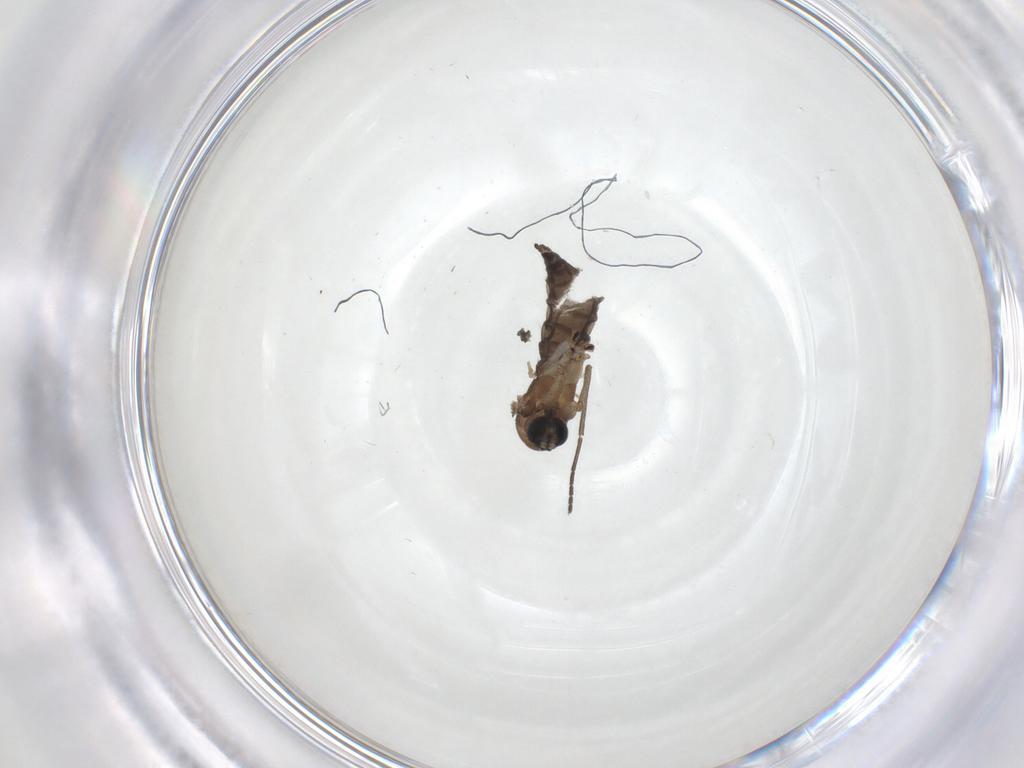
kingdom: Animalia
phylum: Arthropoda
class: Insecta
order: Diptera
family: Sciaridae
